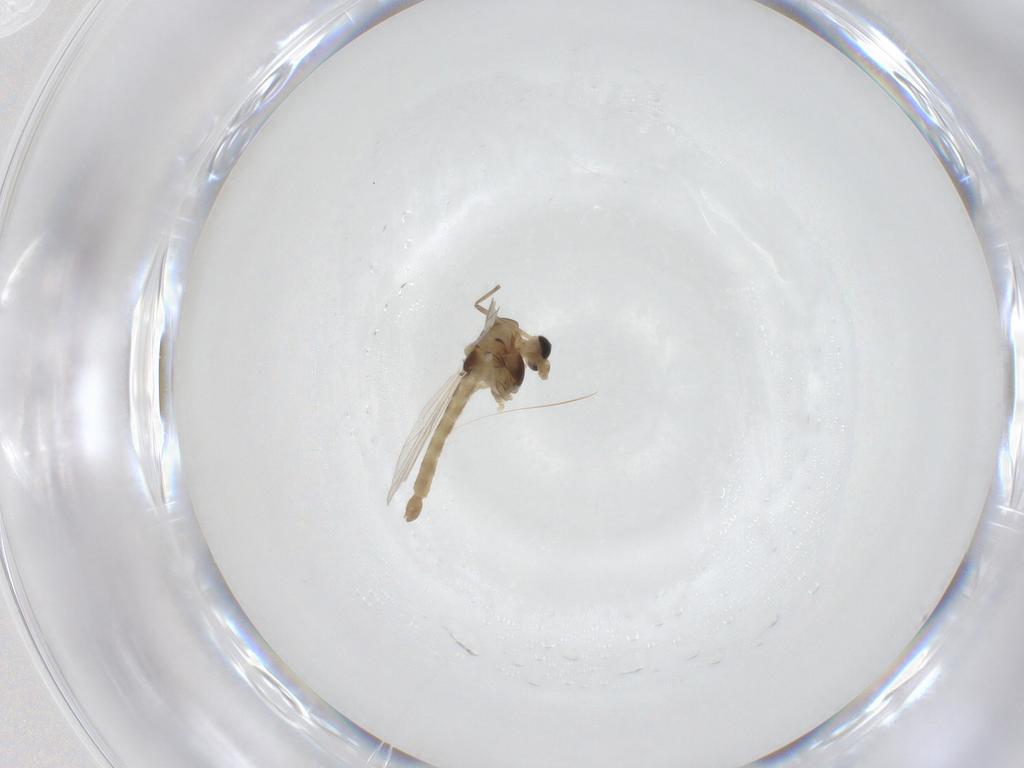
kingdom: Animalia
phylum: Arthropoda
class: Insecta
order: Diptera
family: Chironomidae
